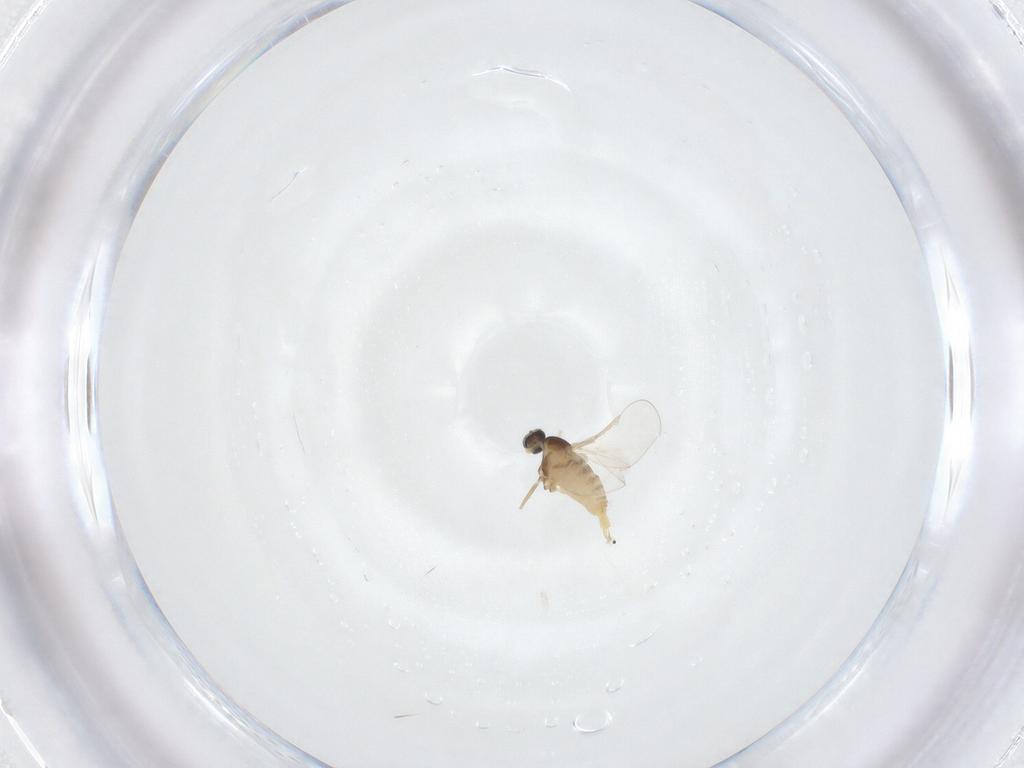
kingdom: Animalia
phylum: Arthropoda
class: Insecta
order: Diptera
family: Cecidomyiidae
